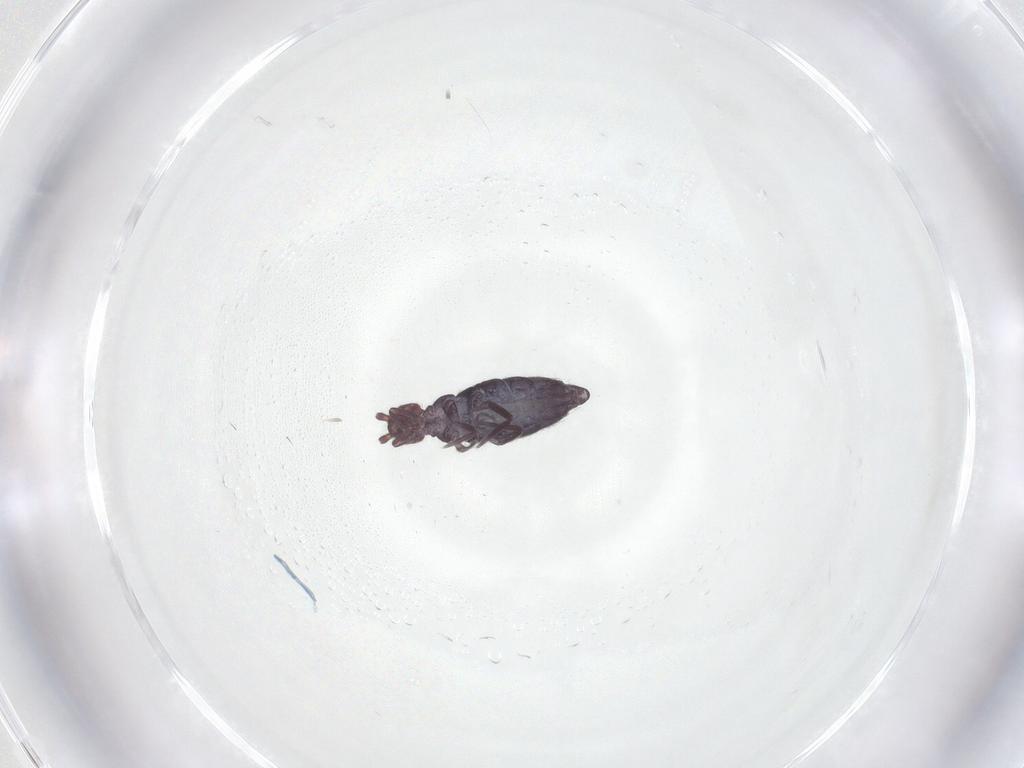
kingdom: Animalia
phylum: Arthropoda
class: Collembola
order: Entomobryomorpha
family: Entomobryidae
